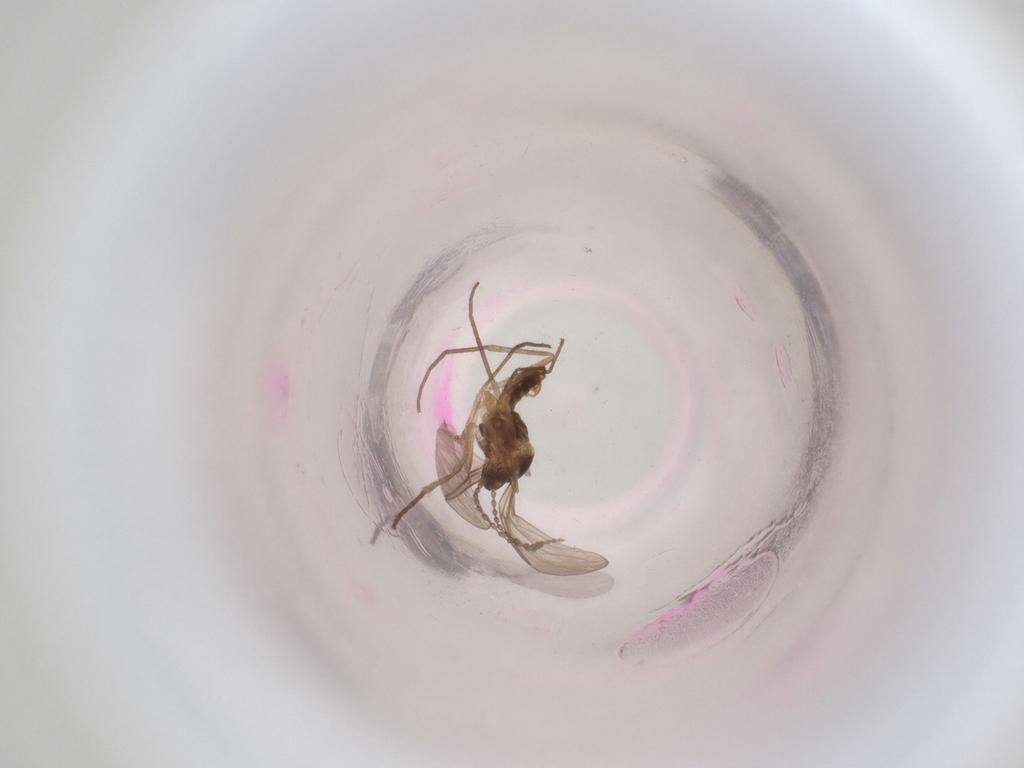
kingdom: Animalia
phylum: Arthropoda
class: Insecta
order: Diptera
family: Cecidomyiidae
